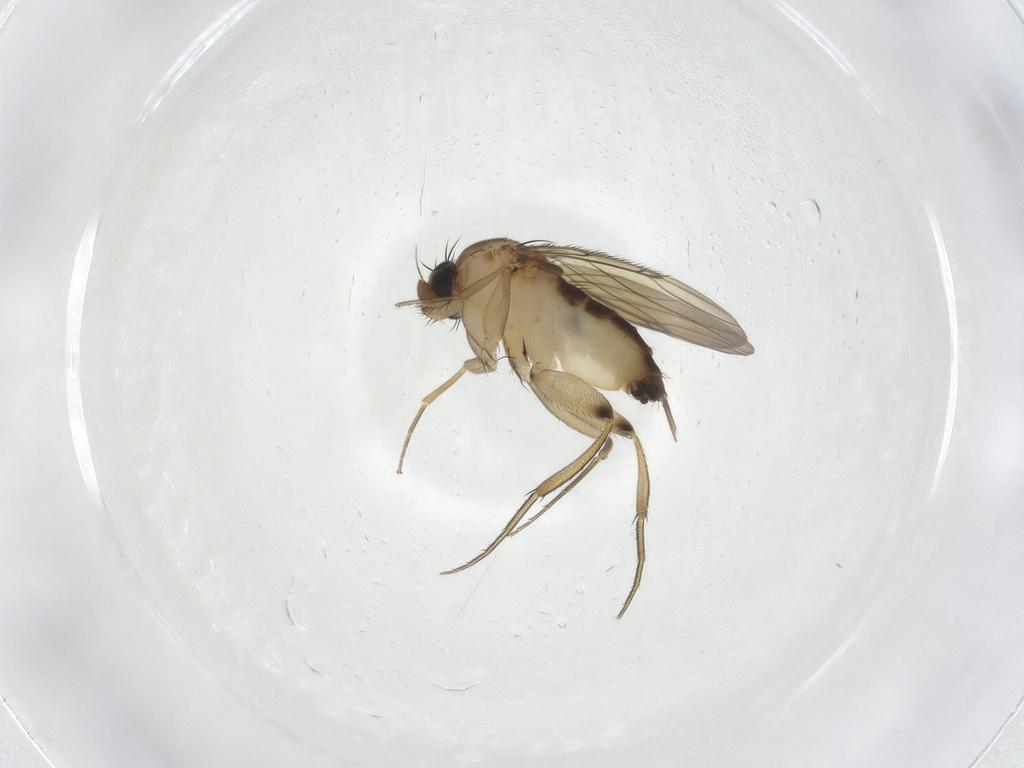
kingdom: Animalia
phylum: Arthropoda
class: Insecta
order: Diptera
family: Phoridae
